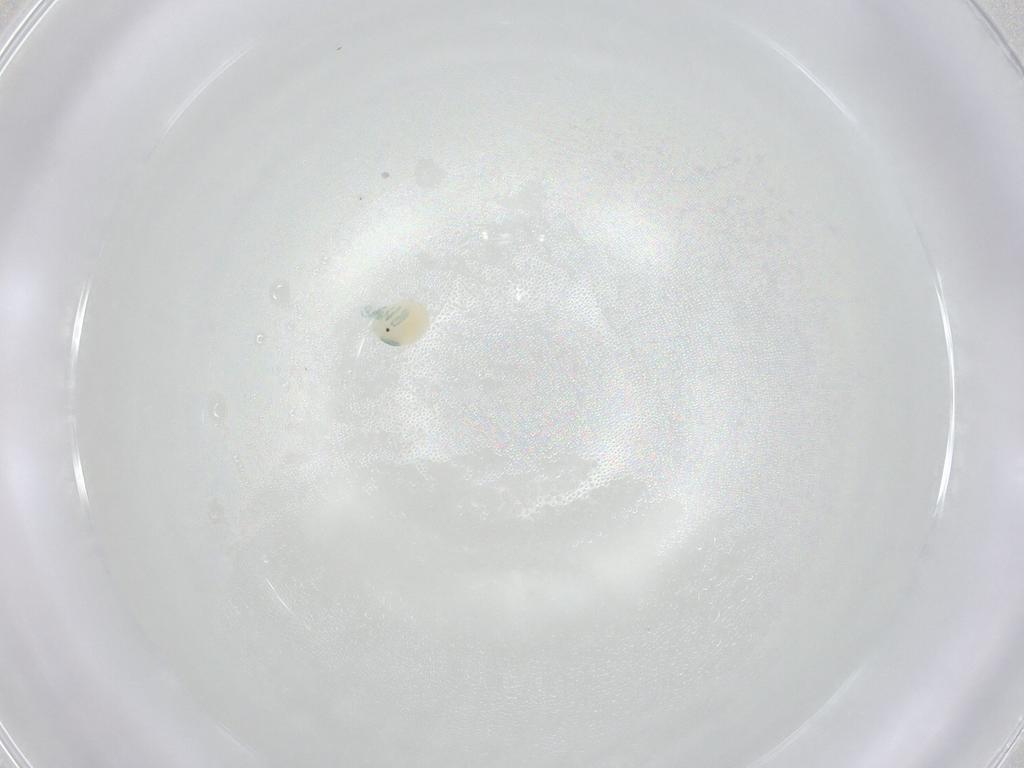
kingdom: Animalia
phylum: Arthropoda
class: Arachnida
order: Trombidiformes
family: Arrenuridae
